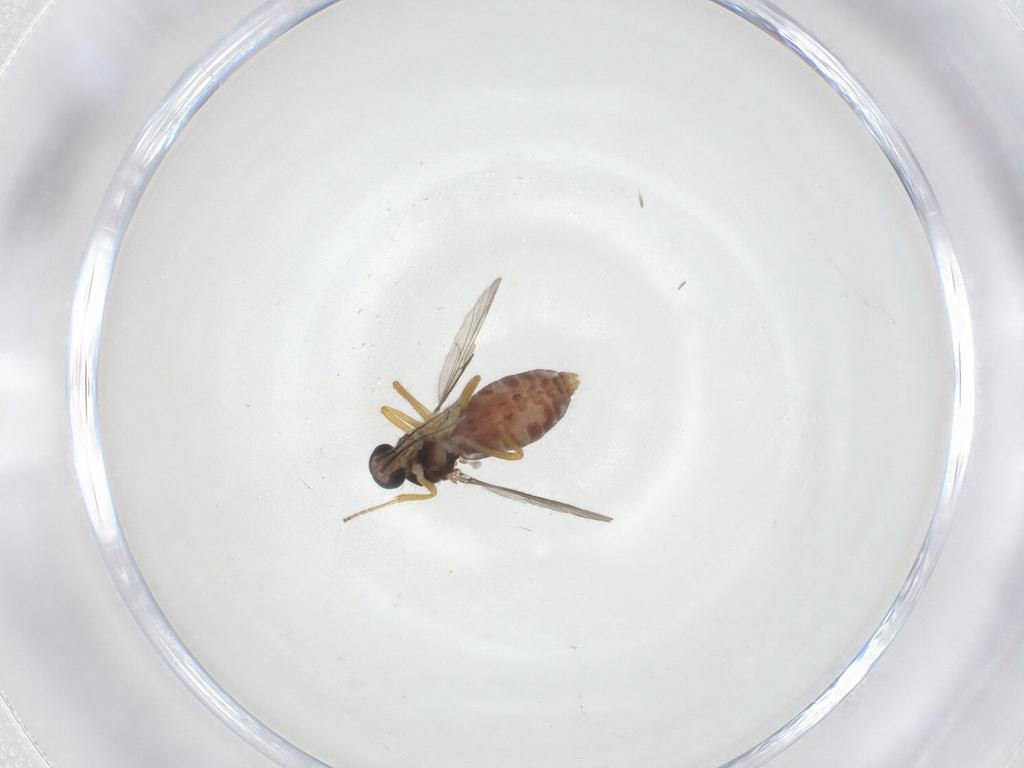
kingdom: Animalia
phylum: Arthropoda
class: Insecta
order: Diptera
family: Ceratopogonidae
